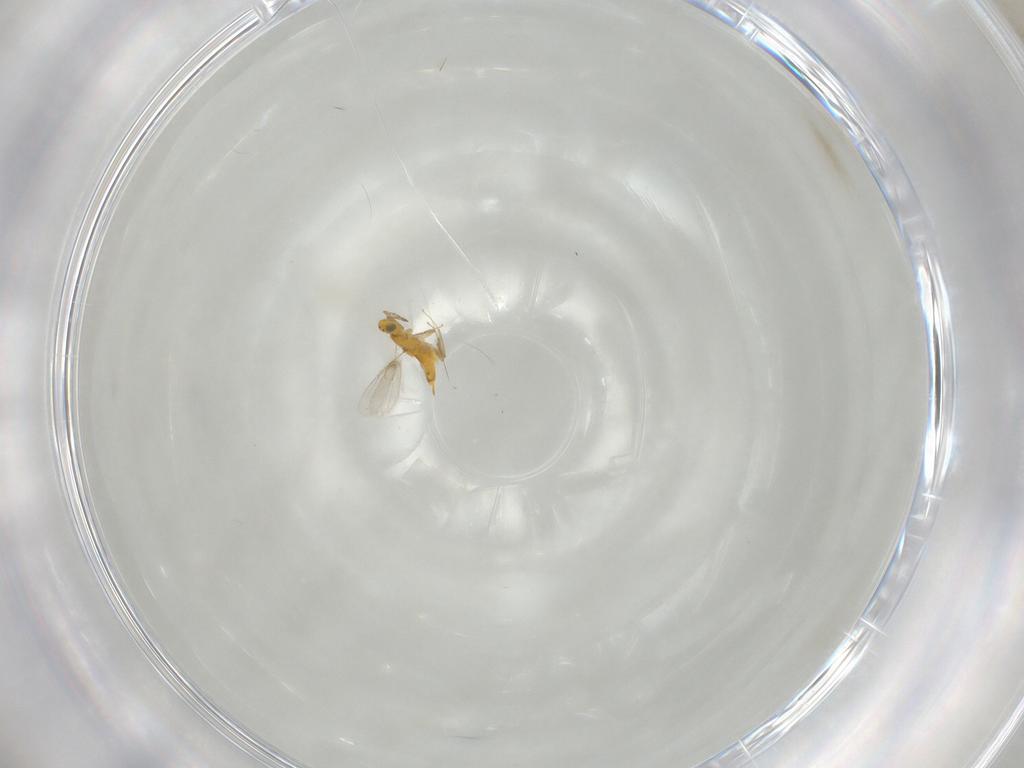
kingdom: Animalia
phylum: Arthropoda
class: Insecta
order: Hymenoptera
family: Aphelinidae
